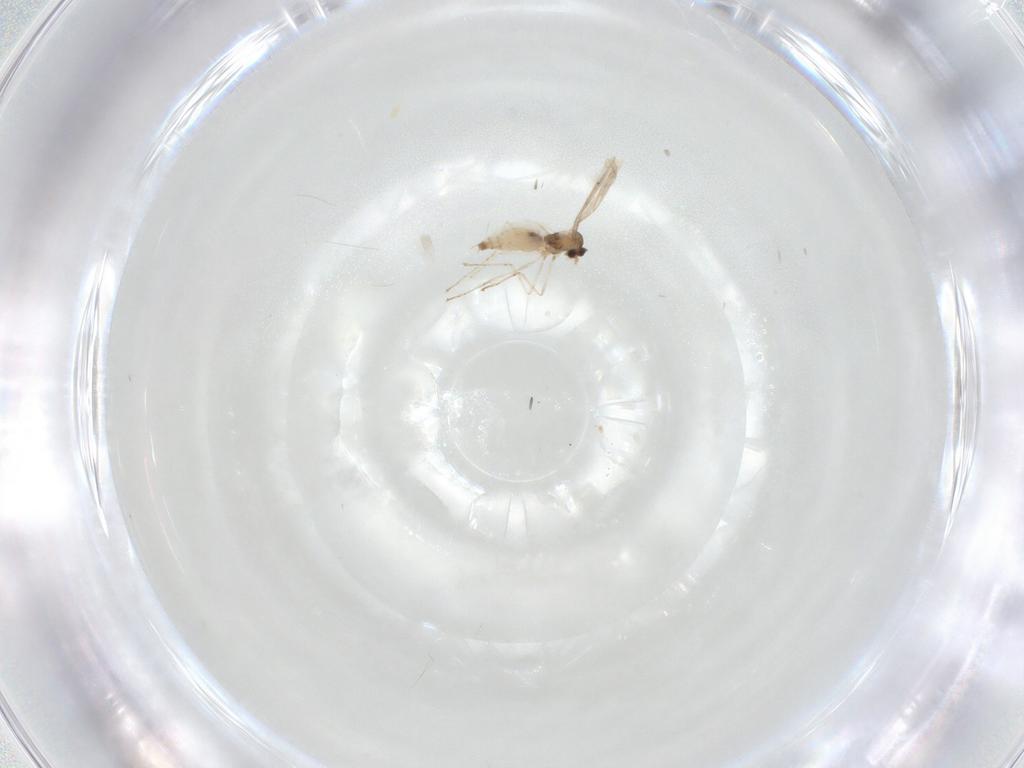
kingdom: Animalia
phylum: Arthropoda
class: Insecta
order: Diptera
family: Cecidomyiidae
